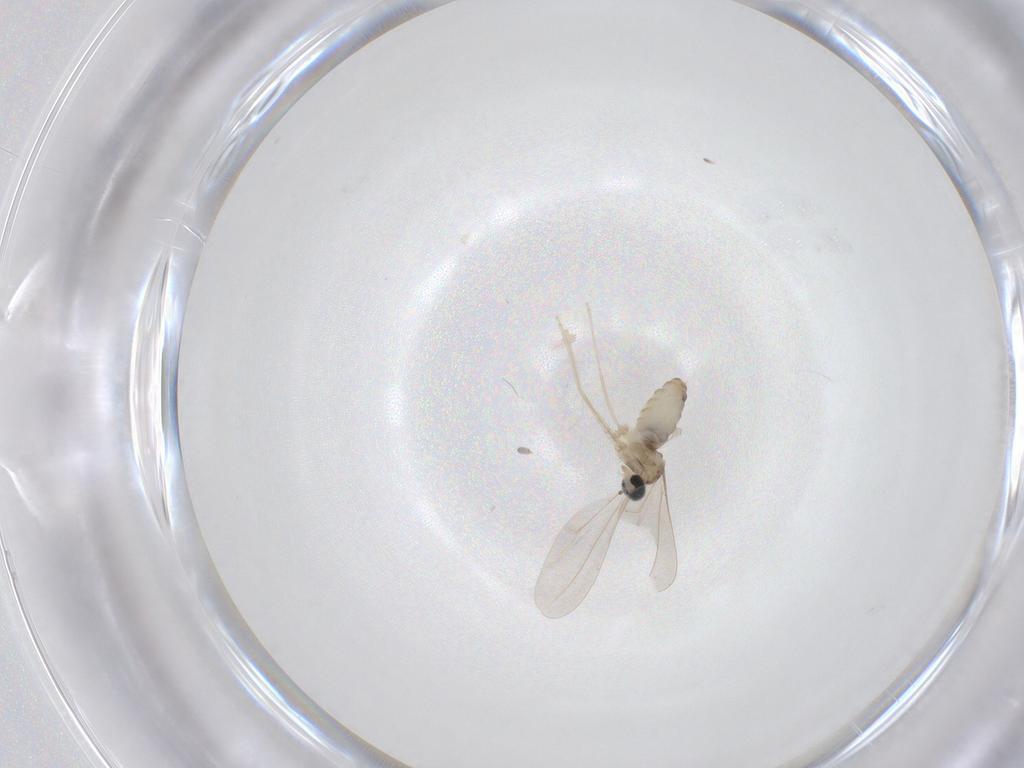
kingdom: Animalia
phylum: Arthropoda
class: Insecta
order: Diptera
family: Cecidomyiidae
